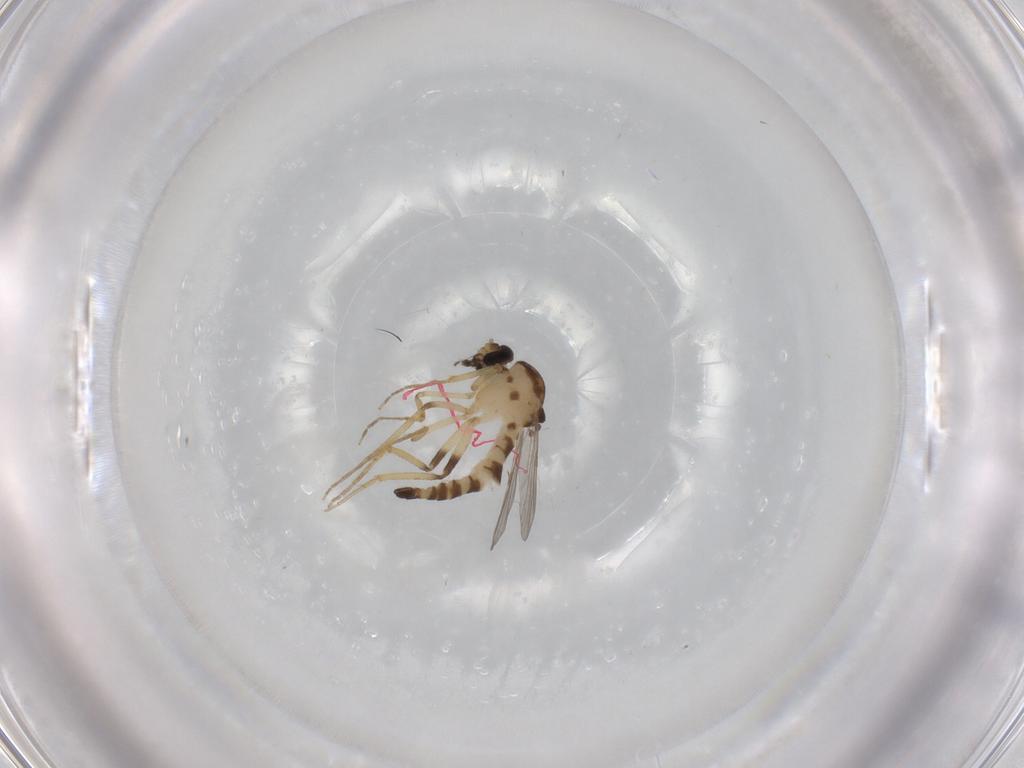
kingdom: Animalia
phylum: Arthropoda
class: Insecta
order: Diptera
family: Ceratopogonidae
